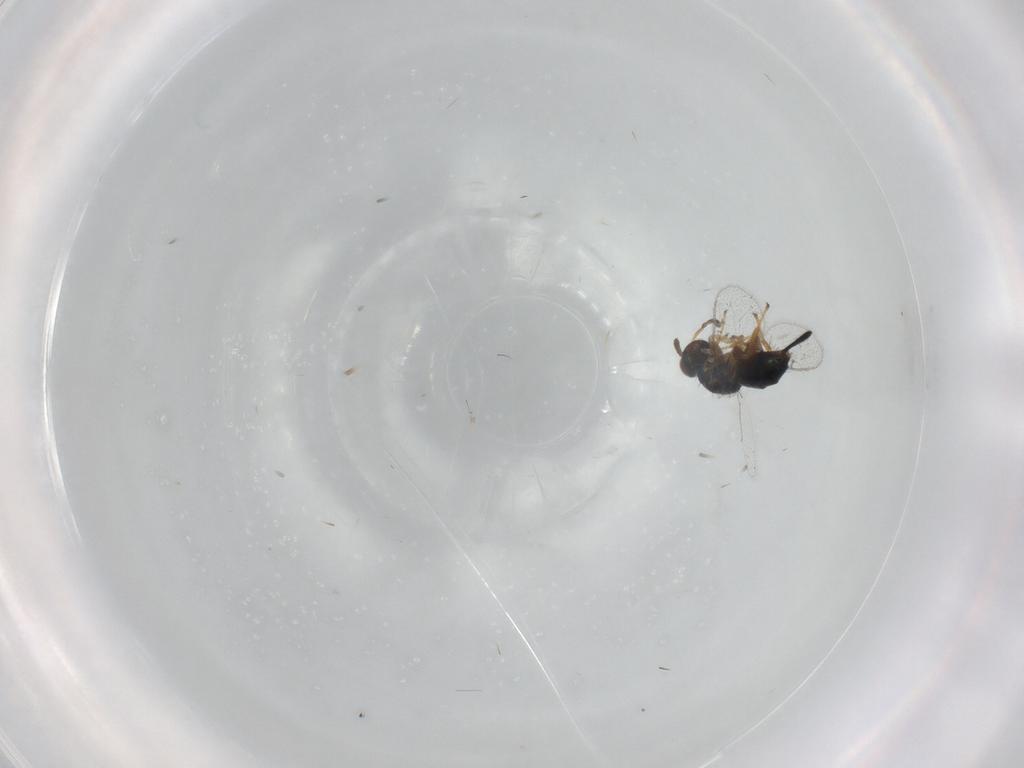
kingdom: Animalia
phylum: Arthropoda
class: Insecta
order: Hymenoptera
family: Torymidae
